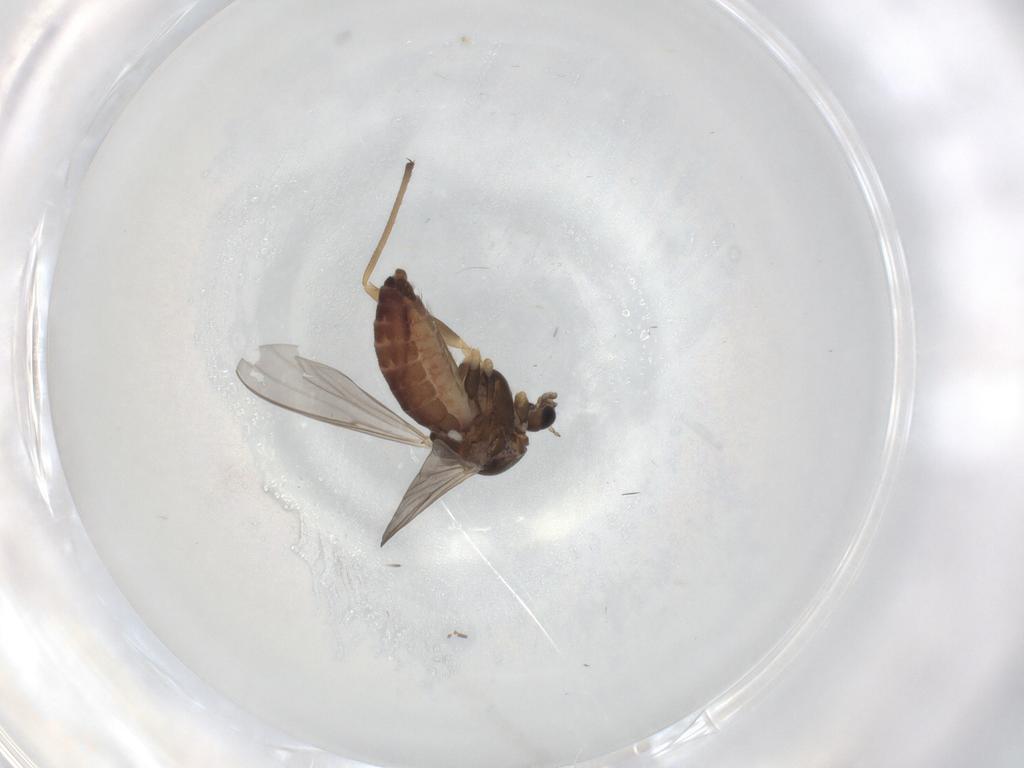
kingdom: Animalia
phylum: Arthropoda
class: Insecta
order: Diptera
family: Chironomidae
